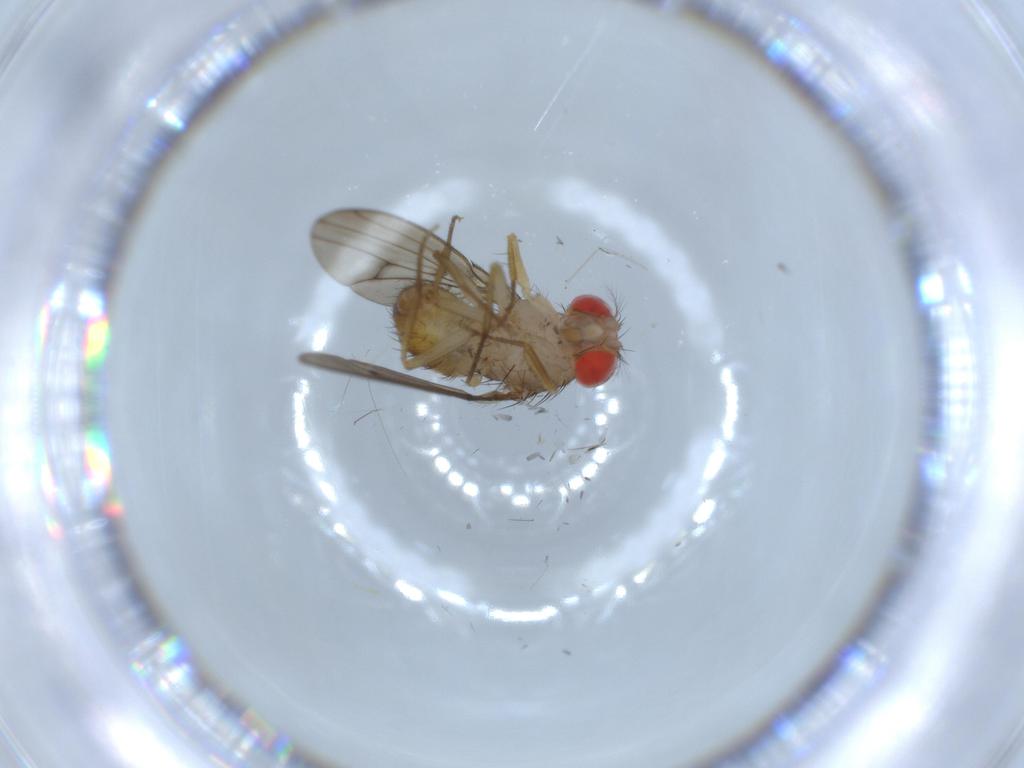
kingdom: Animalia
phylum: Arthropoda
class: Insecta
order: Diptera
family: Drosophilidae
